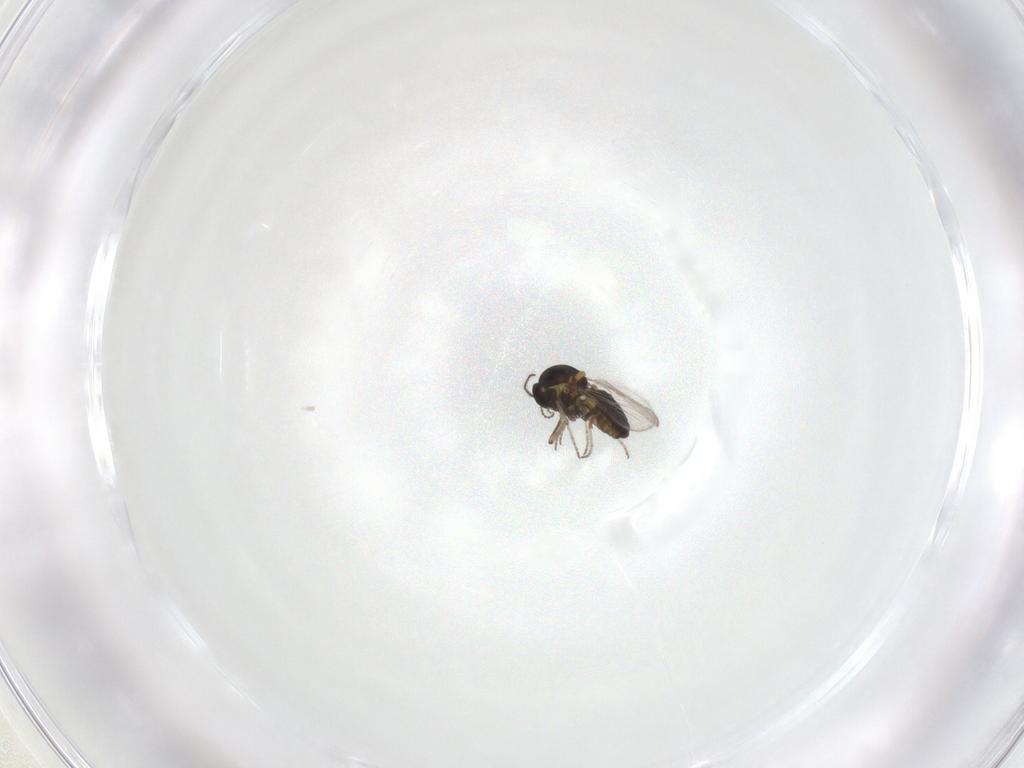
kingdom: Animalia
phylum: Arthropoda
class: Insecta
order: Diptera
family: Ceratopogonidae
